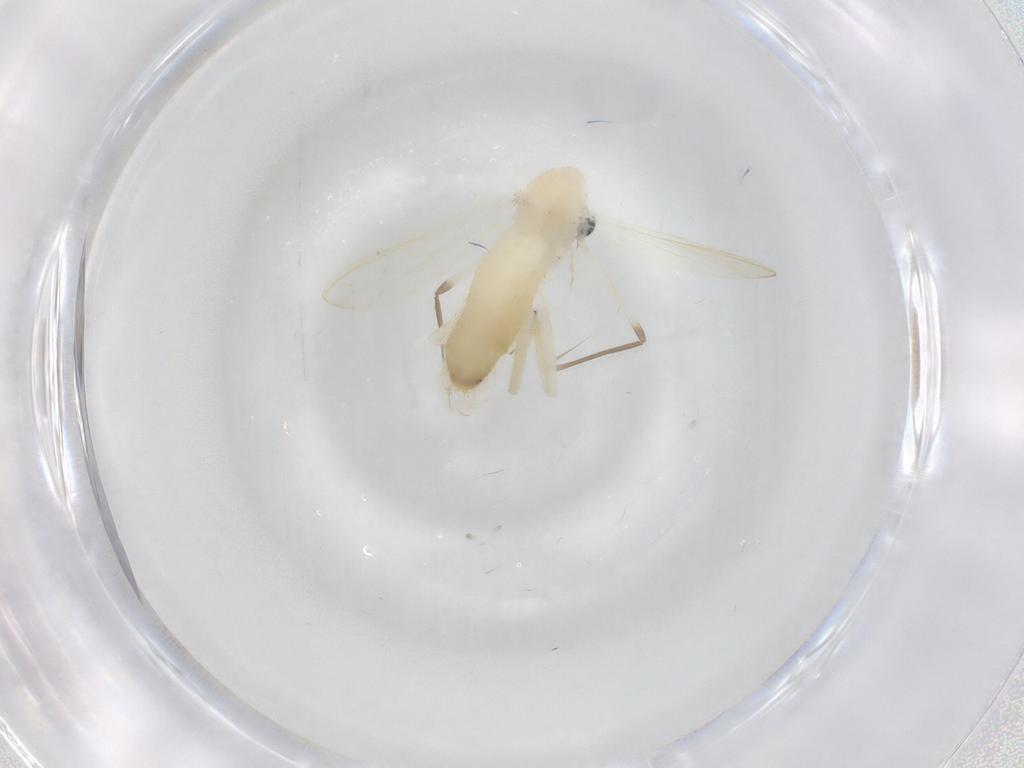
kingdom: Animalia
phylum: Arthropoda
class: Insecta
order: Diptera
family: Chironomidae
